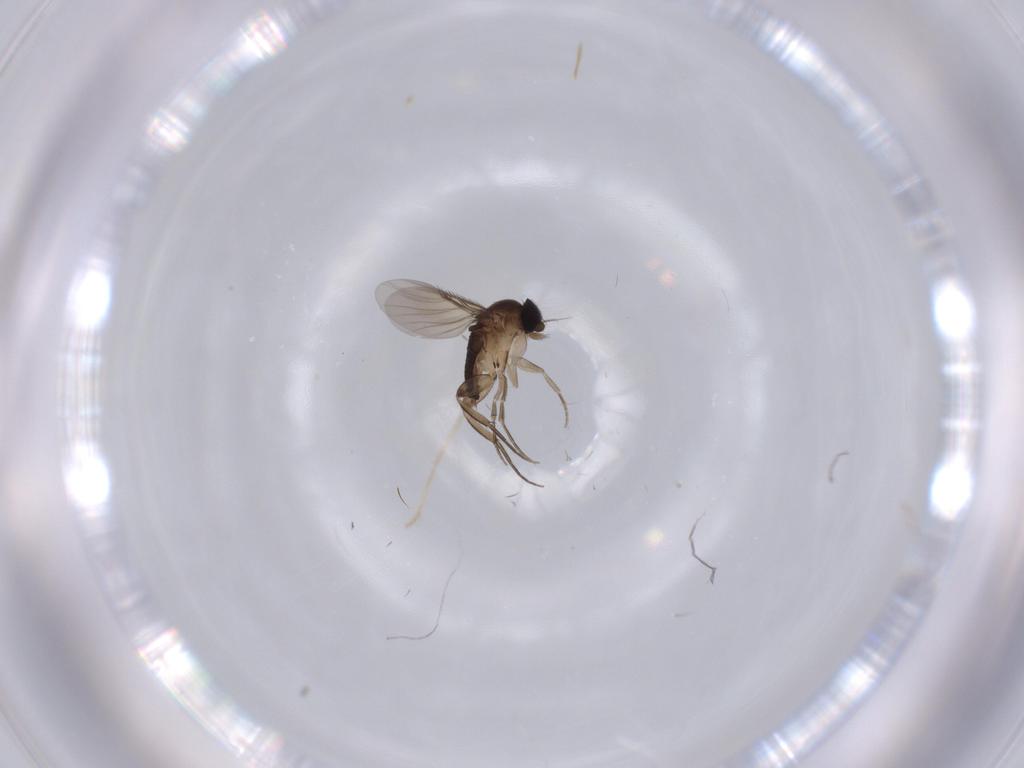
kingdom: Animalia
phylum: Arthropoda
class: Insecta
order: Diptera
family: Phoridae
